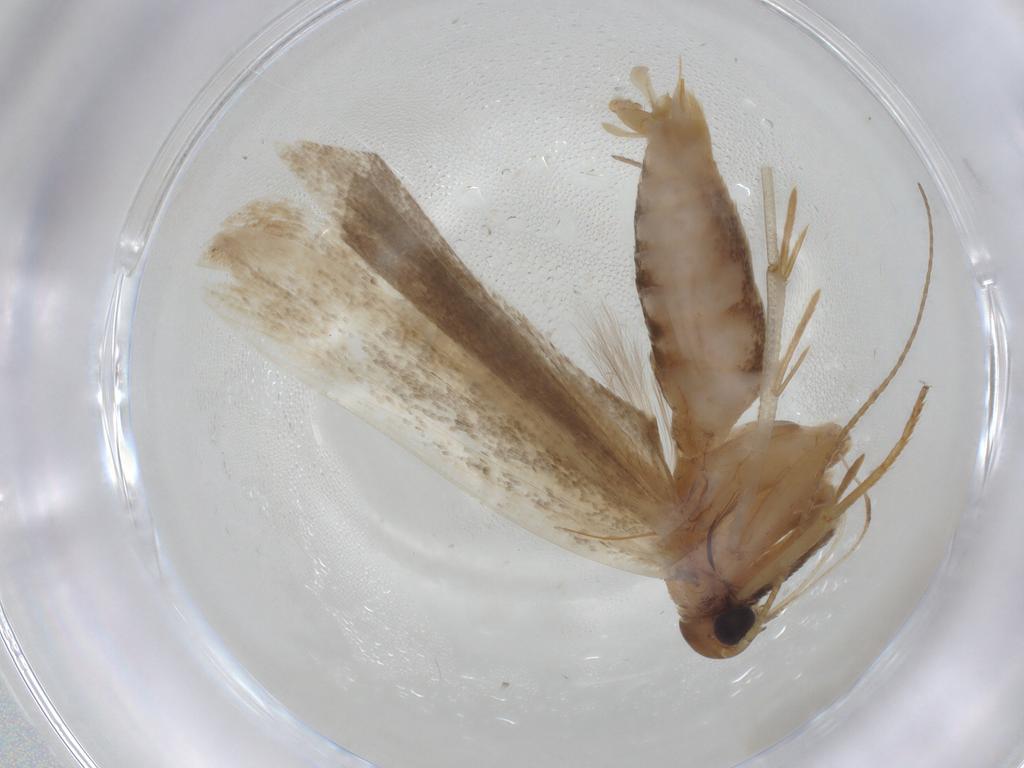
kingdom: Animalia
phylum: Arthropoda
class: Insecta
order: Lepidoptera
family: Gelechiidae
